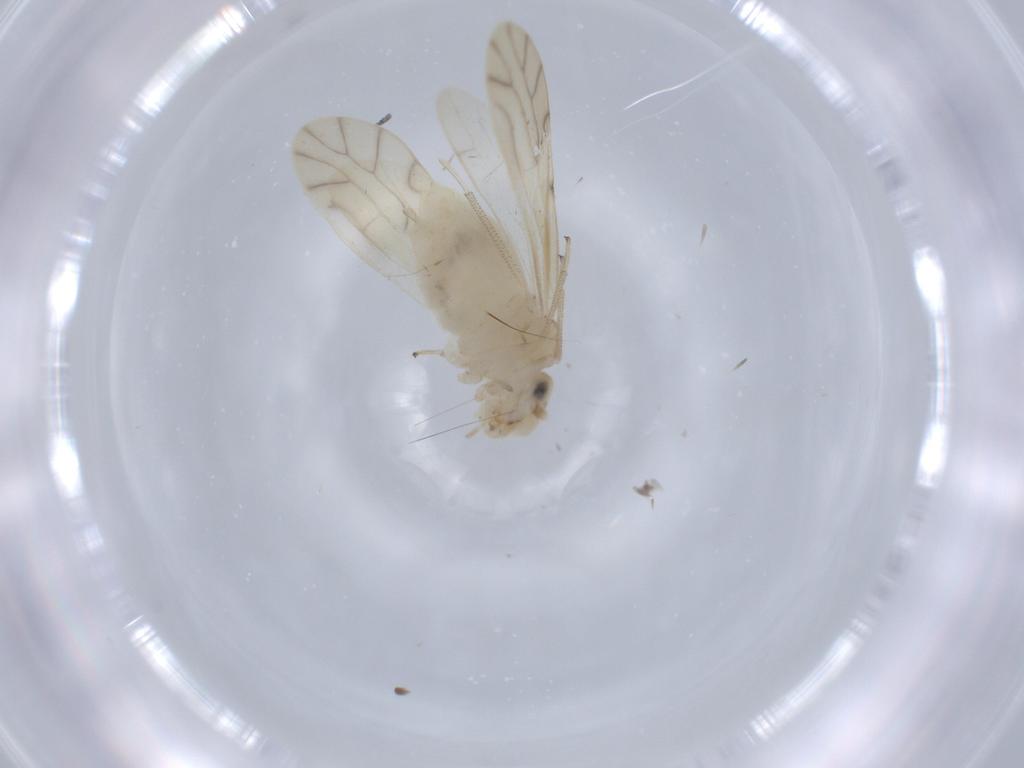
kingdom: Animalia
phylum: Arthropoda
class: Insecta
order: Psocodea
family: Caeciliusidae
